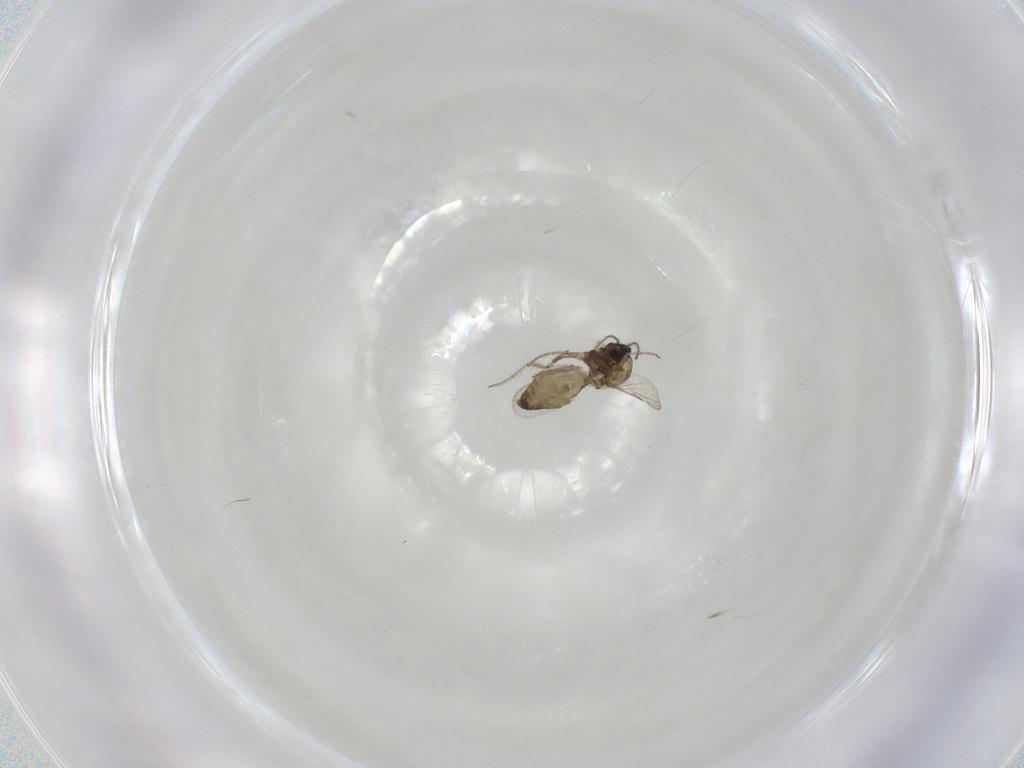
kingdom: Animalia
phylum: Arthropoda
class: Insecta
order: Diptera
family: Ceratopogonidae
